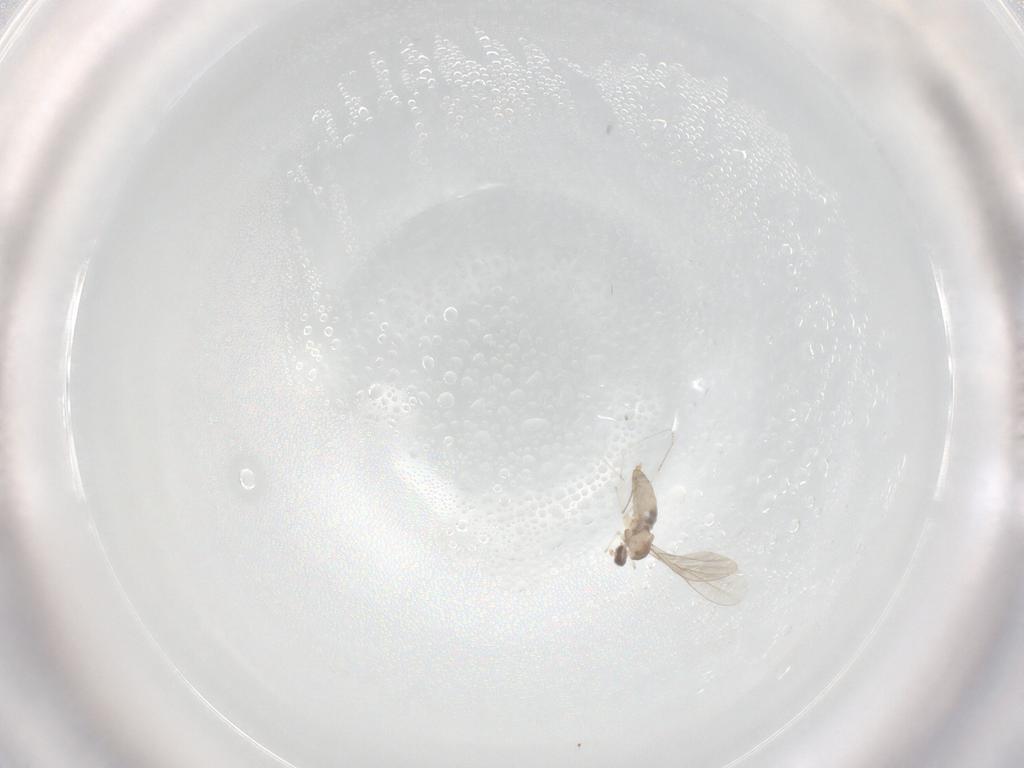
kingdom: Animalia
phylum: Arthropoda
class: Insecta
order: Diptera
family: Cecidomyiidae
